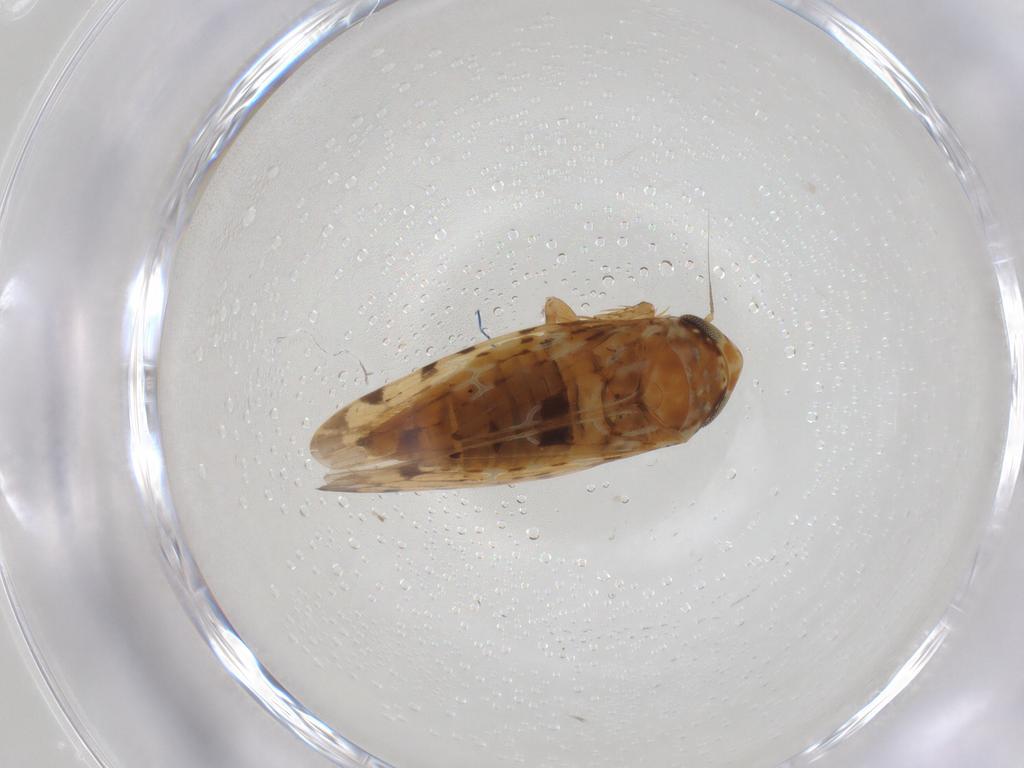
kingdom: Animalia
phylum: Arthropoda
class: Insecta
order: Hemiptera
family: Cicadellidae
